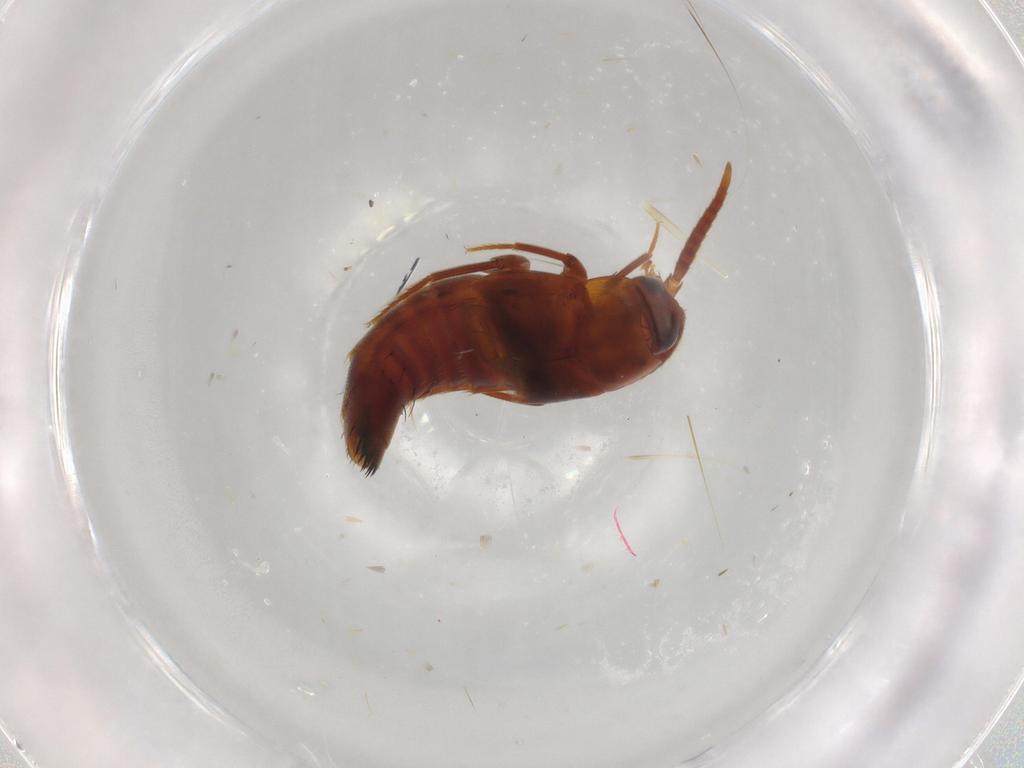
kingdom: Animalia
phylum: Arthropoda
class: Insecta
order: Coleoptera
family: Staphylinidae
